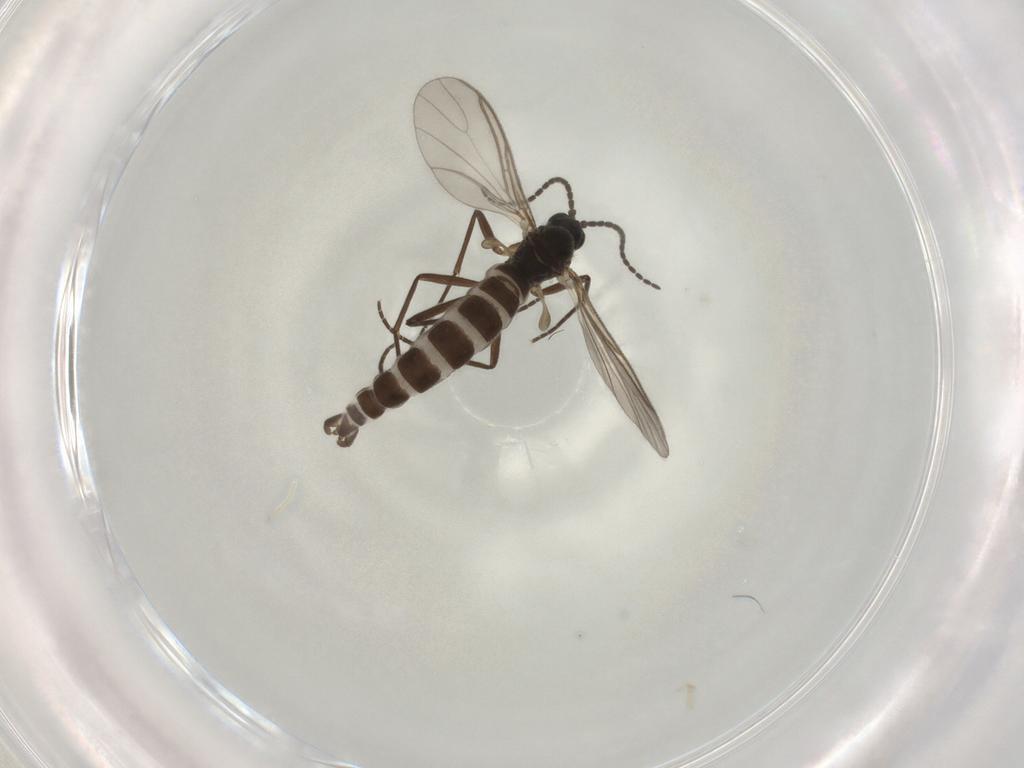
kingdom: Animalia
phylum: Arthropoda
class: Insecta
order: Diptera
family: Sciaridae
